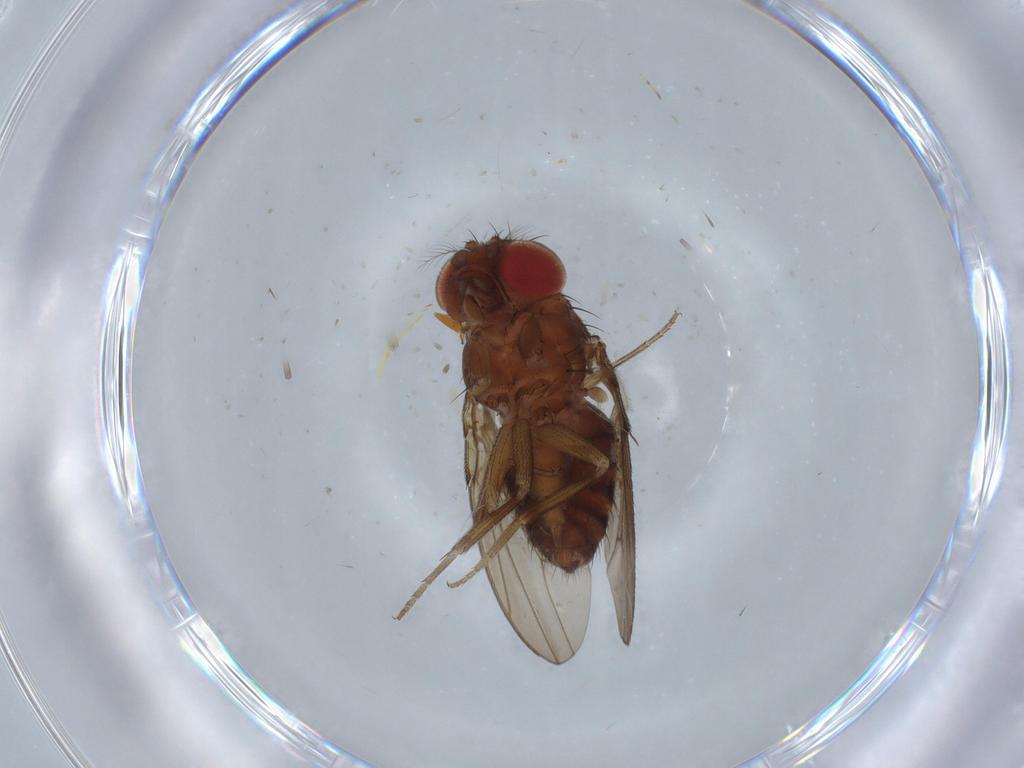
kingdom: Animalia
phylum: Arthropoda
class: Insecta
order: Diptera
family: Drosophilidae
